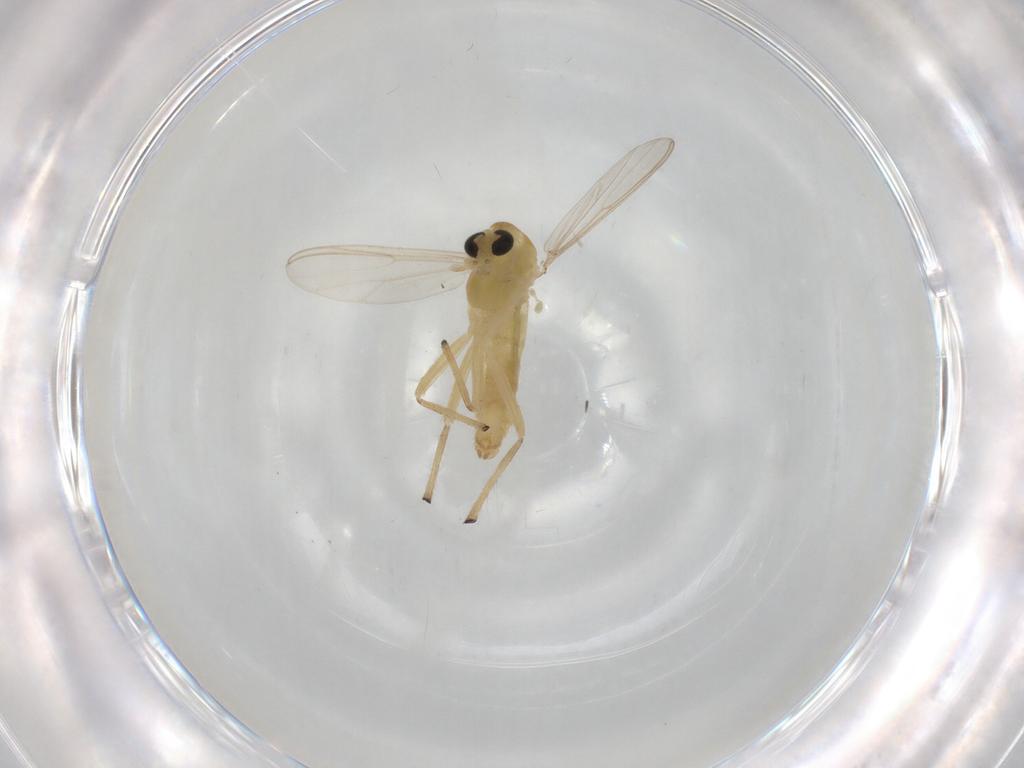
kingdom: Animalia
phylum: Arthropoda
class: Insecta
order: Diptera
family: Chironomidae
